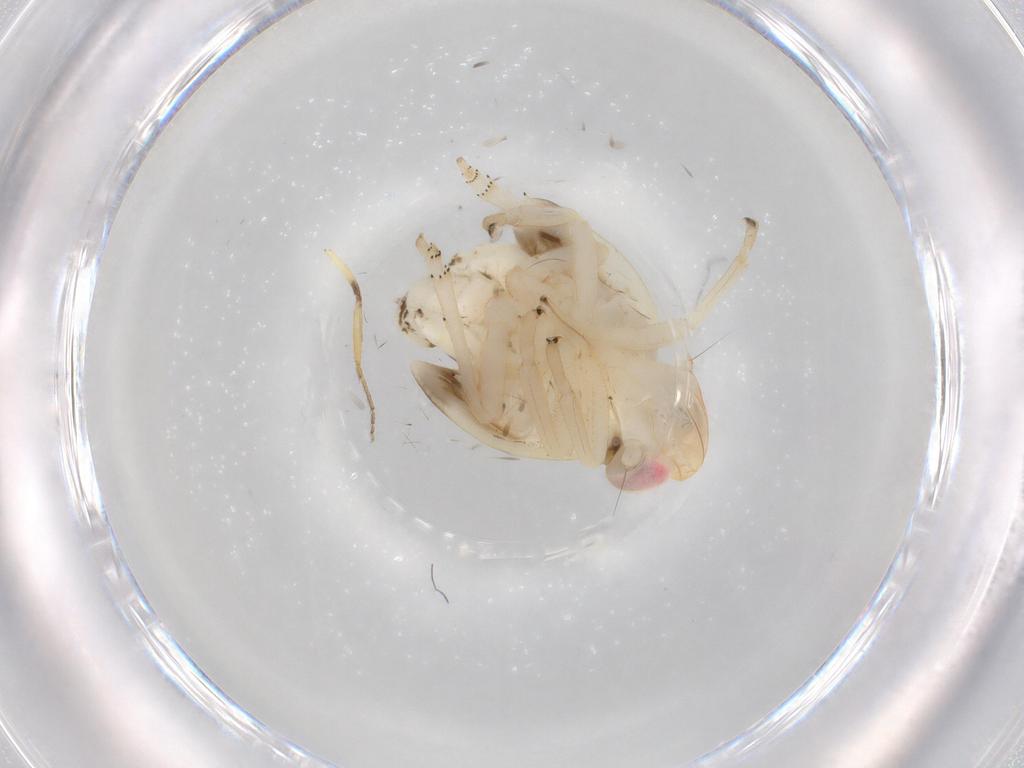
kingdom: Animalia
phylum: Arthropoda
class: Insecta
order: Hemiptera
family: Nogodinidae
